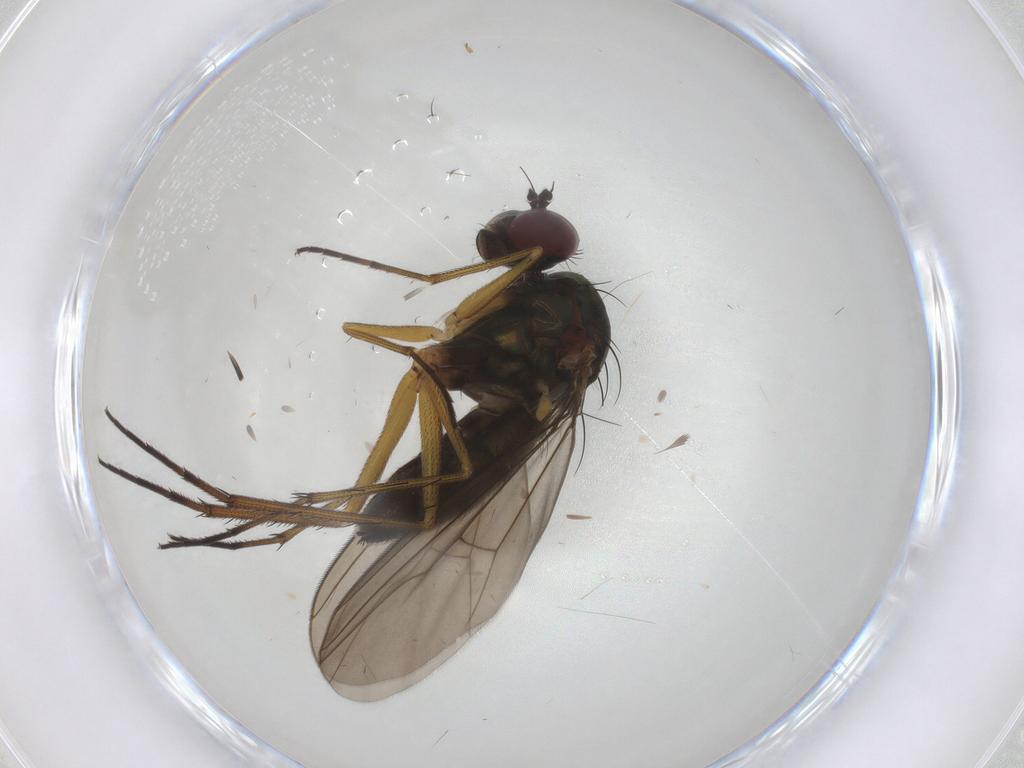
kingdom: Animalia
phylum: Arthropoda
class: Insecta
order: Diptera
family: Dolichopodidae
